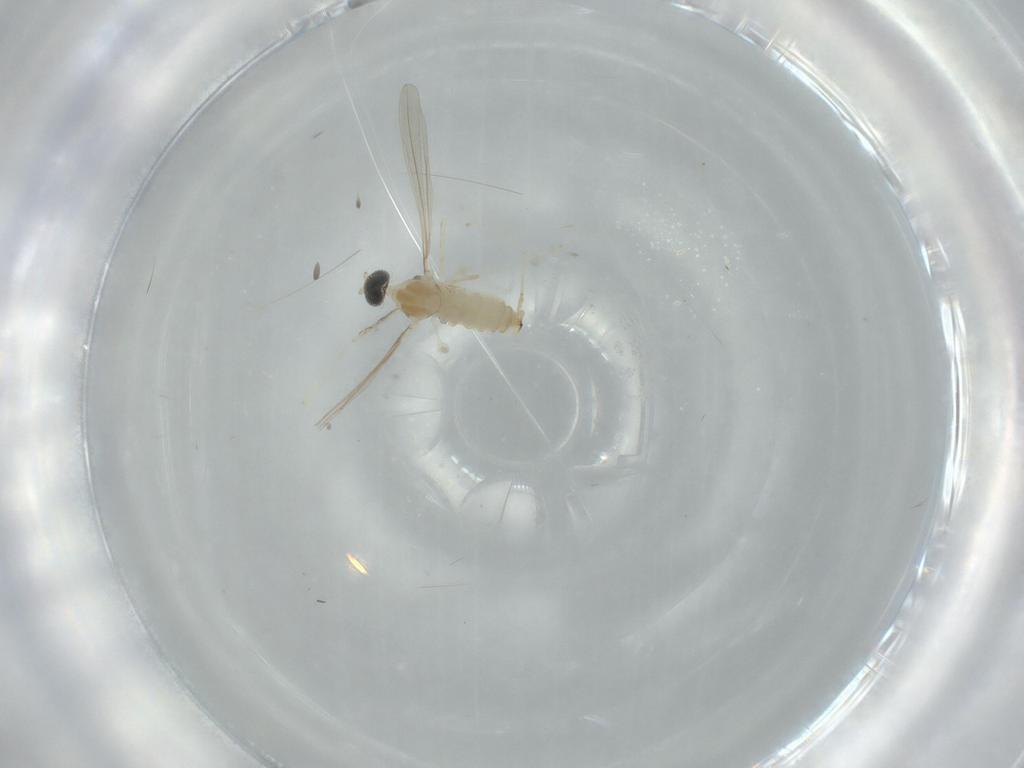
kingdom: Animalia
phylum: Arthropoda
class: Insecta
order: Diptera
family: Cecidomyiidae
